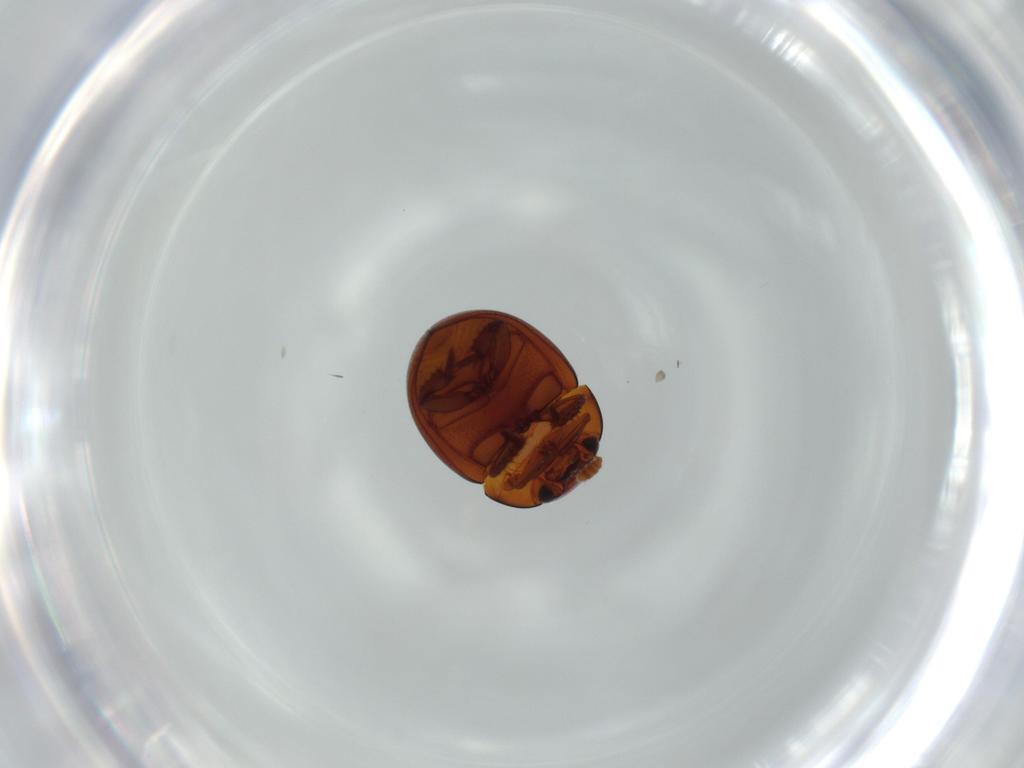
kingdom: Animalia
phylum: Arthropoda
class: Insecta
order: Coleoptera
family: Leiodidae
